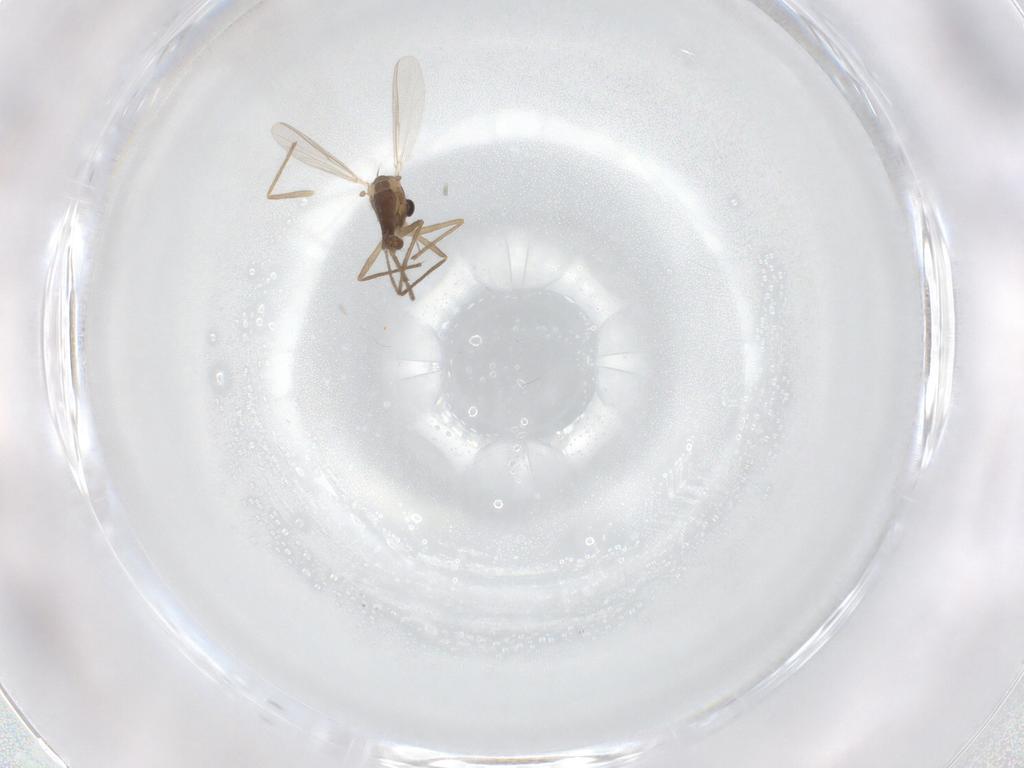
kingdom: Animalia
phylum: Arthropoda
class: Insecta
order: Diptera
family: Chironomidae
